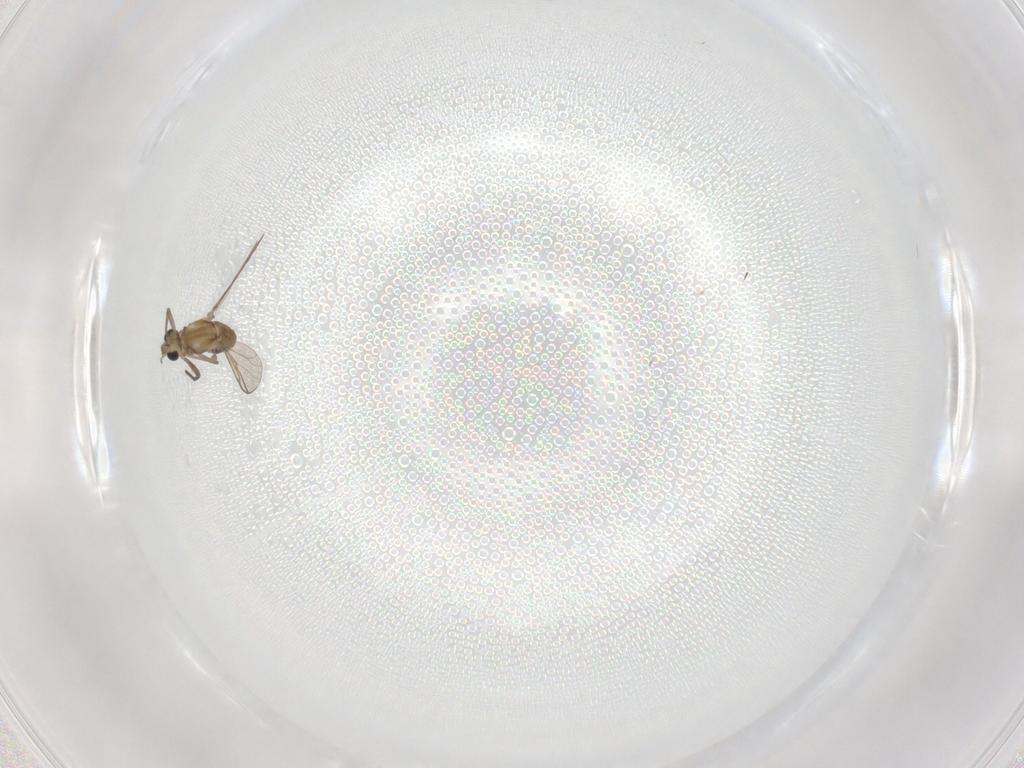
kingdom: Animalia
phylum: Arthropoda
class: Insecta
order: Diptera
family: Chironomidae
